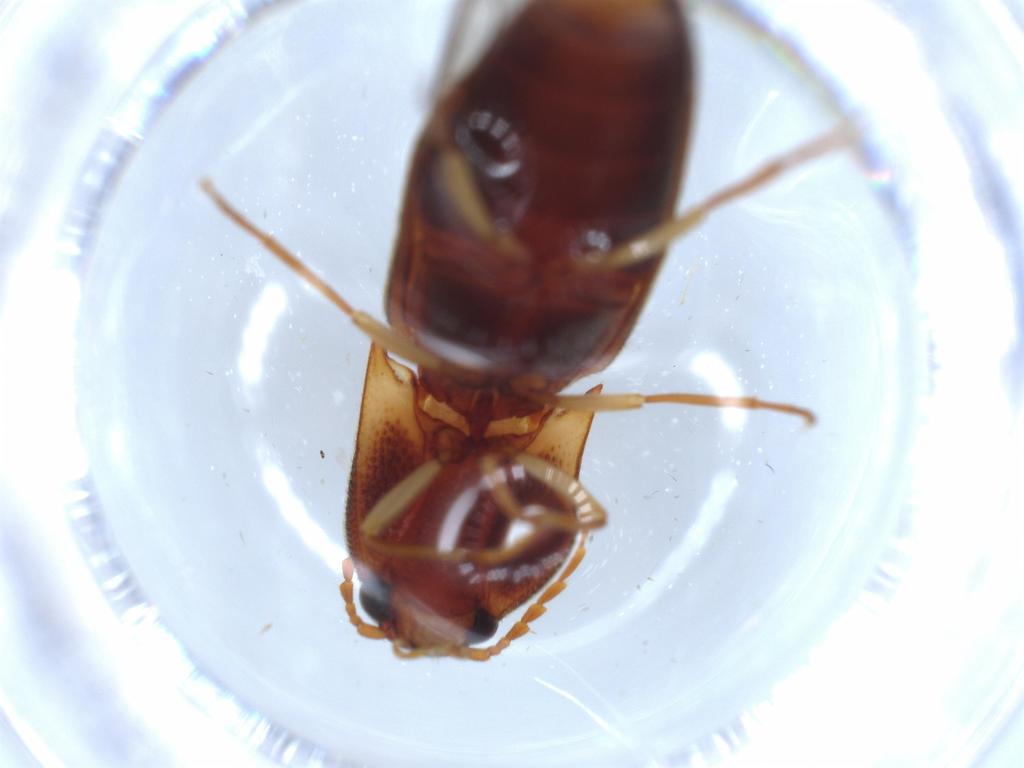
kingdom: Animalia
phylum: Arthropoda
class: Insecta
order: Coleoptera
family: Elateridae
